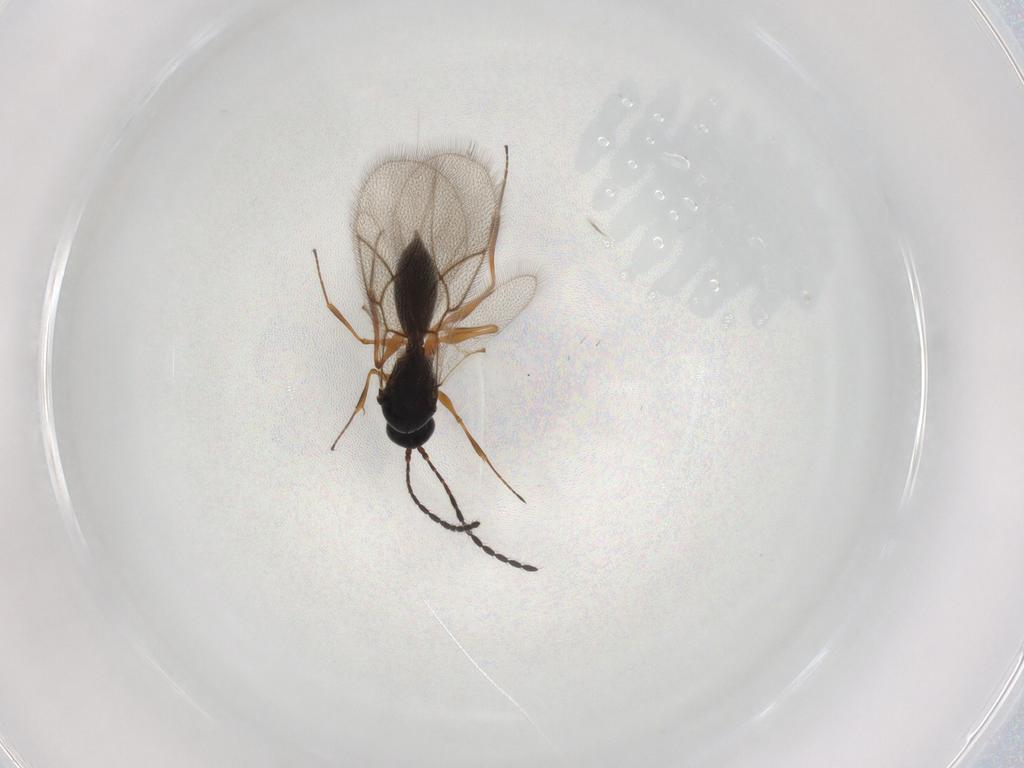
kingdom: Animalia
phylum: Arthropoda
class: Insecta
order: Hymenoptera
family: Figitidae
